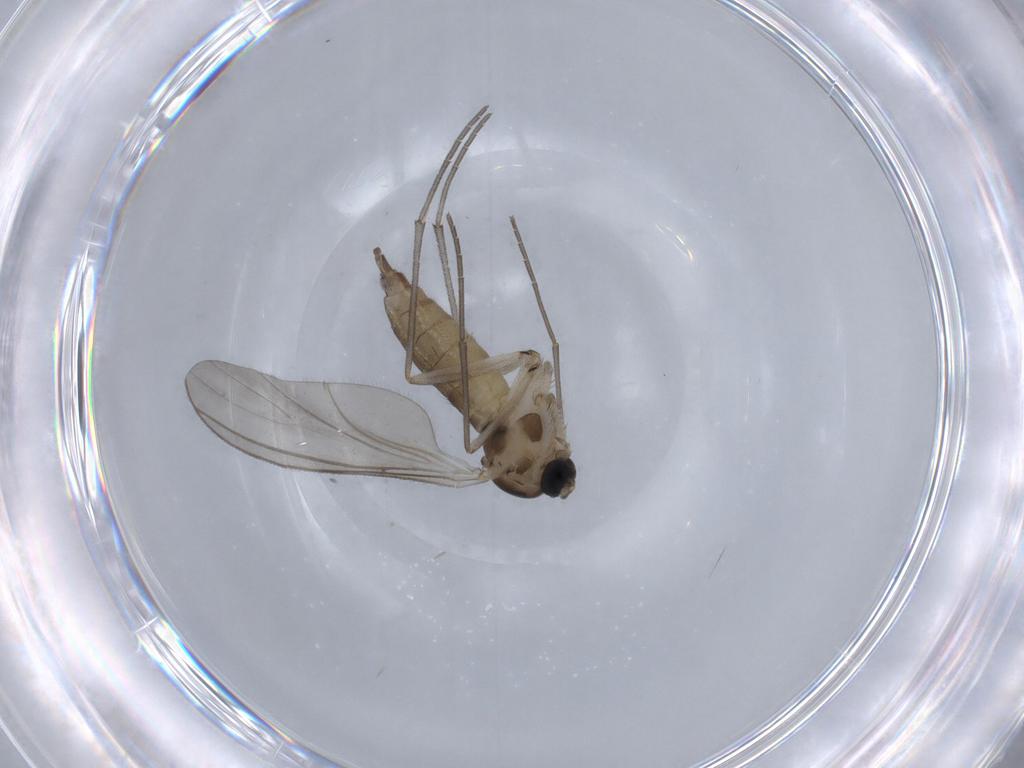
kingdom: Animalia
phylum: Arthropoda
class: Insecta
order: Diptera
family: Sciaridae
